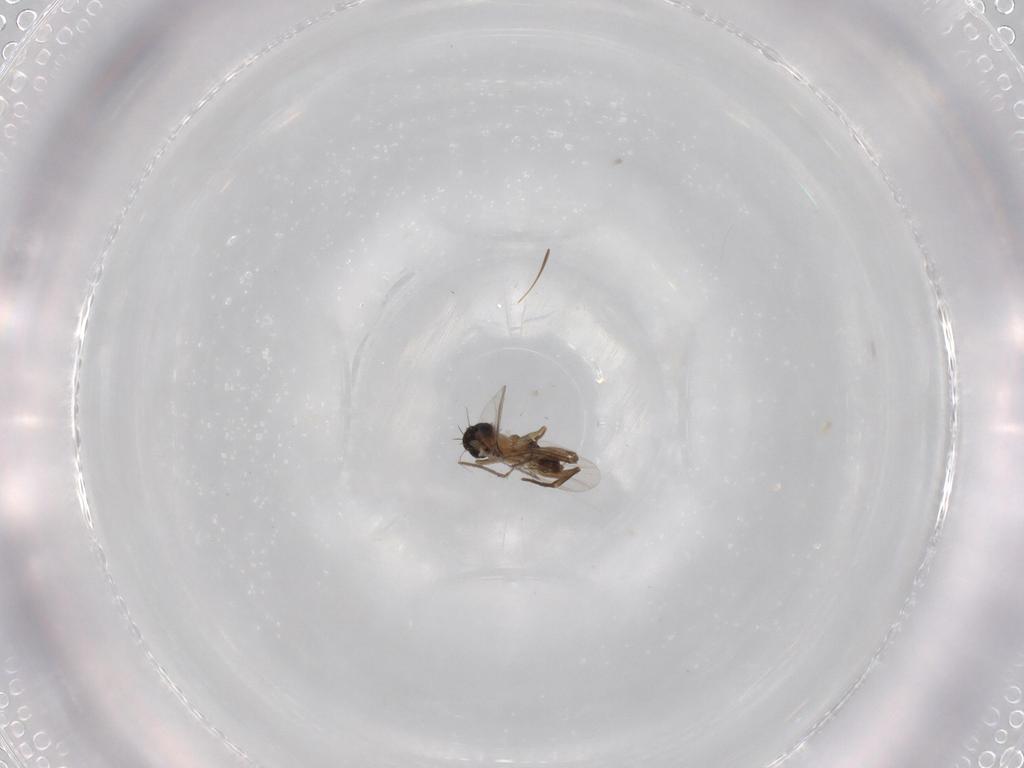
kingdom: Animalia
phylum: Arthropoda
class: Insecta
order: Diptera
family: Phoridae
